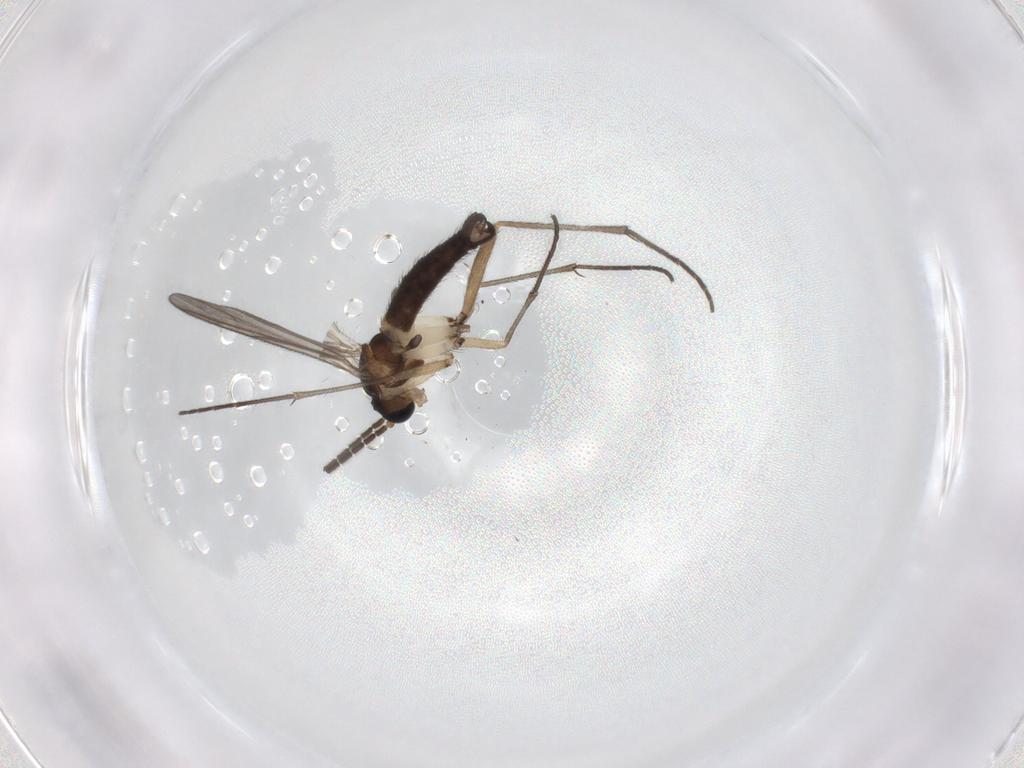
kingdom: Animalia
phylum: Arthropoda
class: Insecta
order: Diptera
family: Sciaridae
